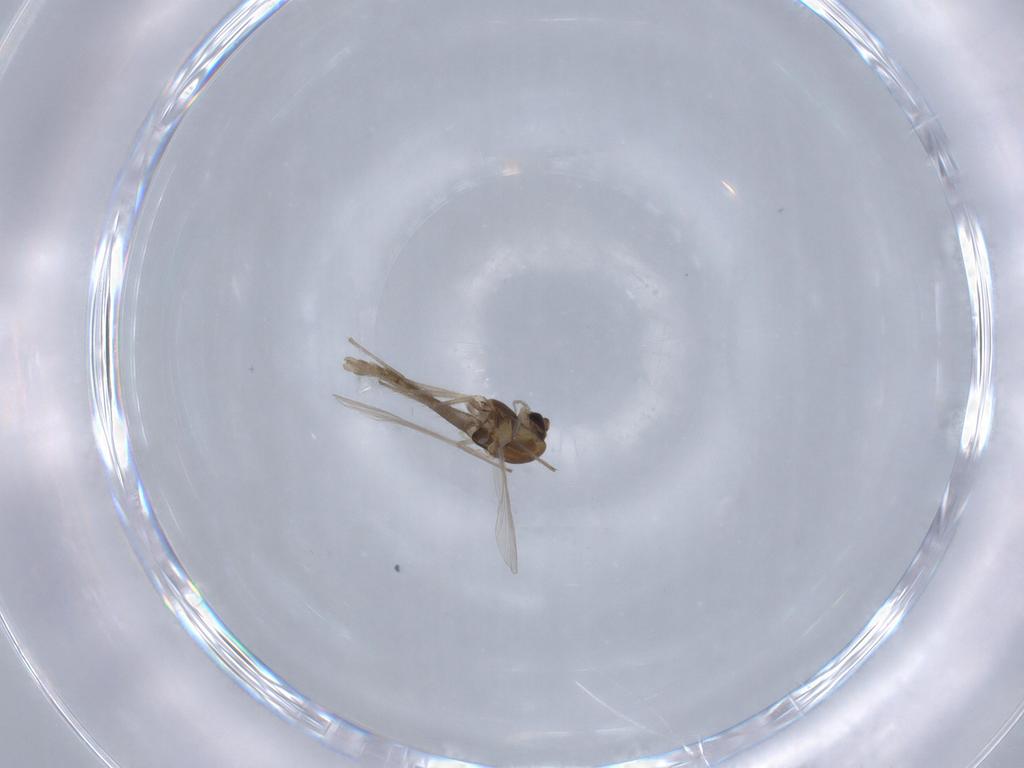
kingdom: Animalia
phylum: Arthropoda
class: Insecta
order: Diptera
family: Chironomidae
